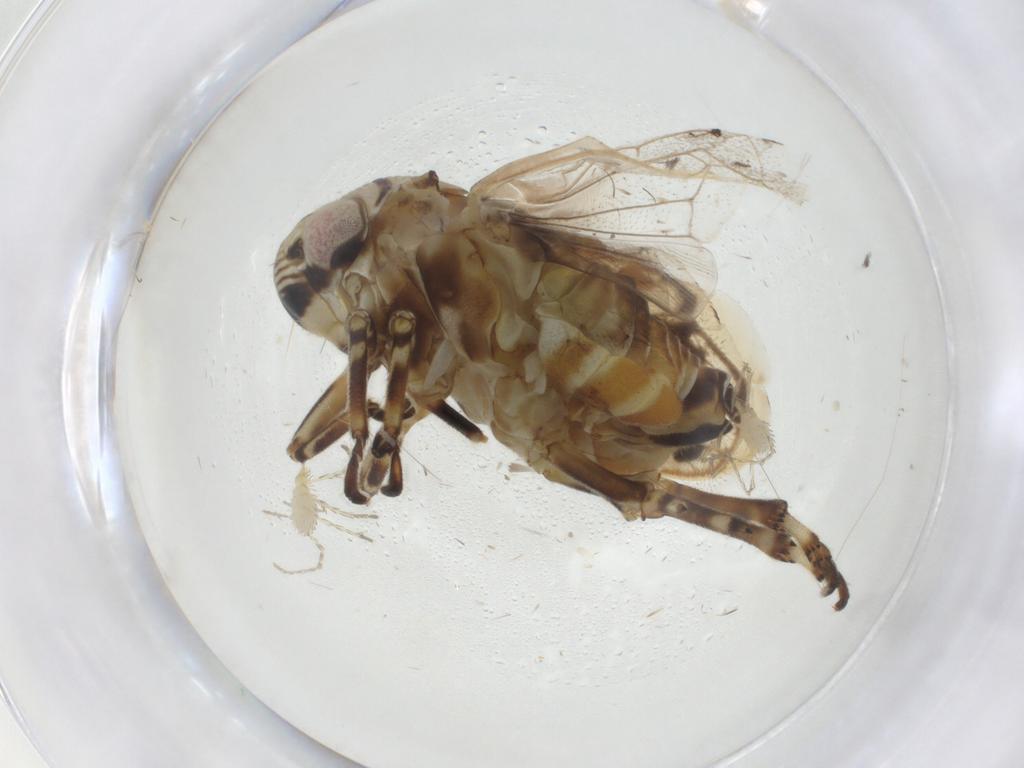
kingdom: Animalia
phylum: Arthropoda
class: Insecta
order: Hemiptera
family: Clastopteridae
